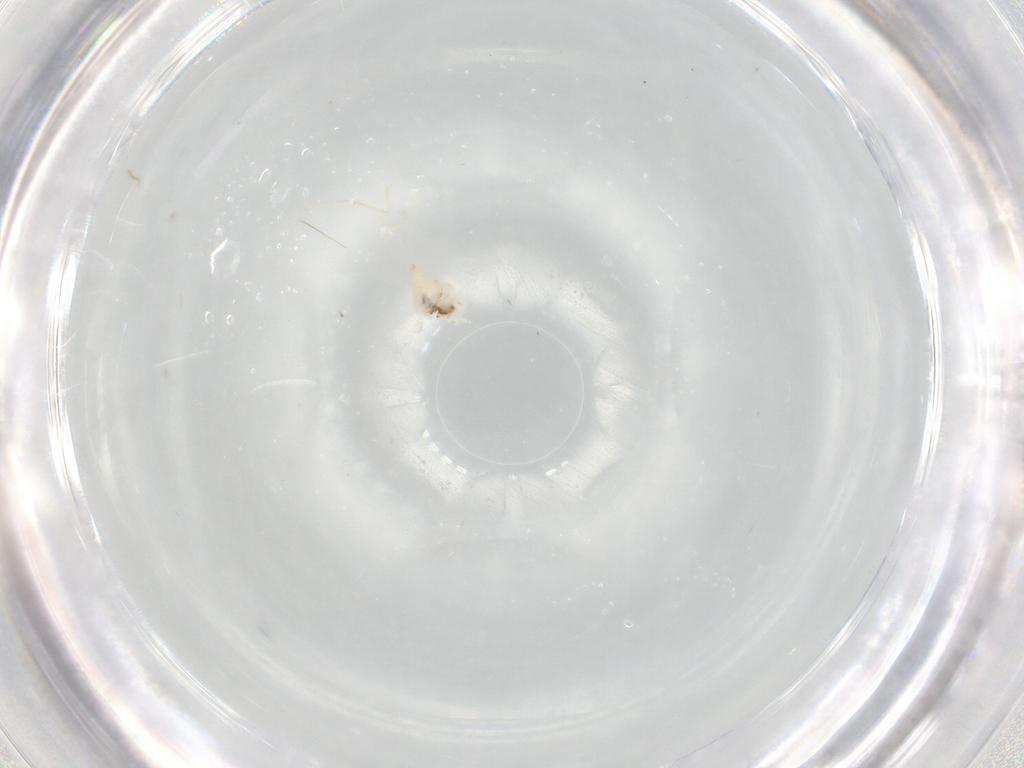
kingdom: Animalia
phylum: Arthropoda
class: Insecta
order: Diptera
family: Cecidomyiidae
